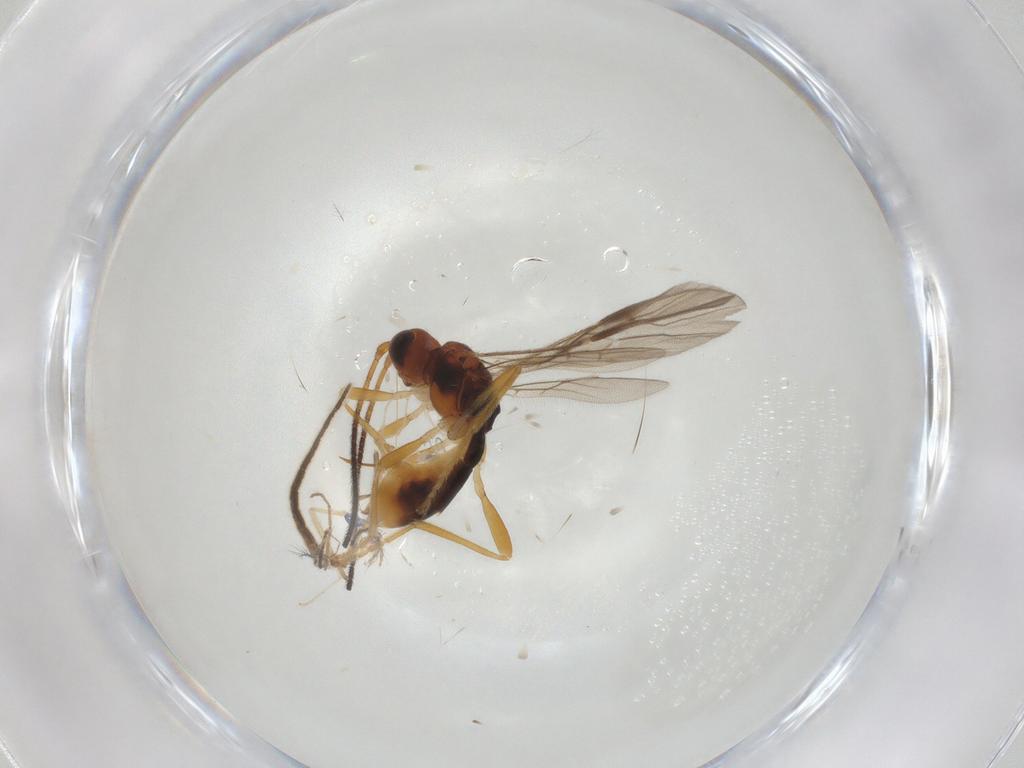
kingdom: Animalia
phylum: Arthropoda
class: Insecta
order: Hymenoptera
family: Braconidae
